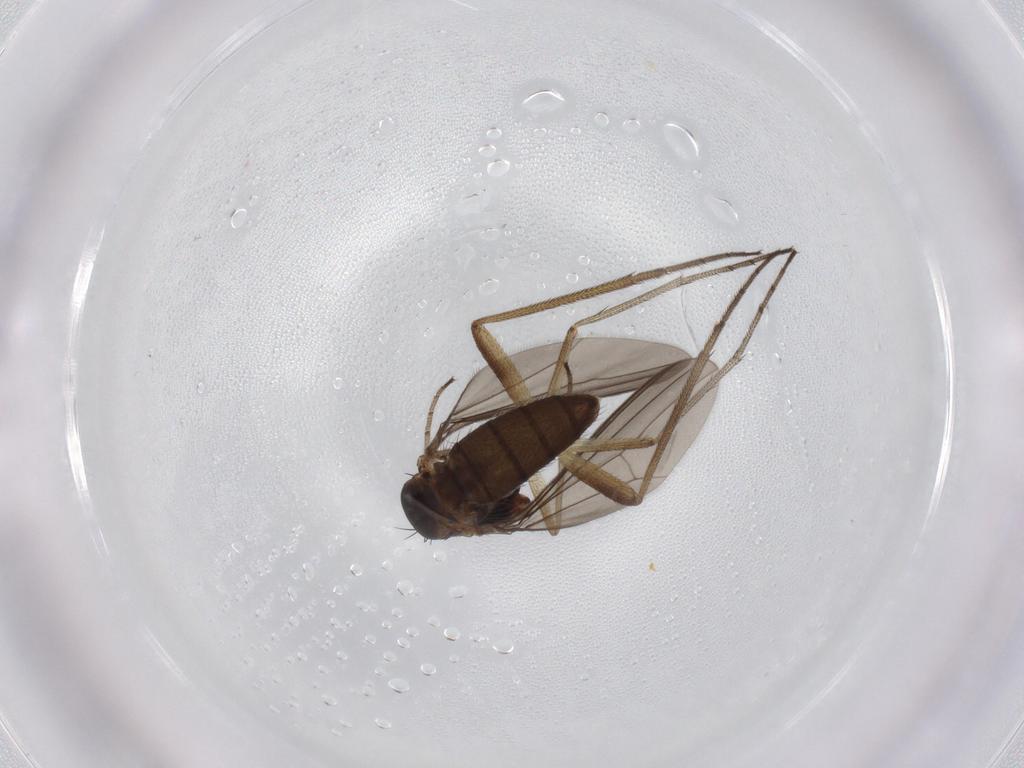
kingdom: Animalia
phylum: Arthropoda
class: Insecta
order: Diptera
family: Dolichopodidae
